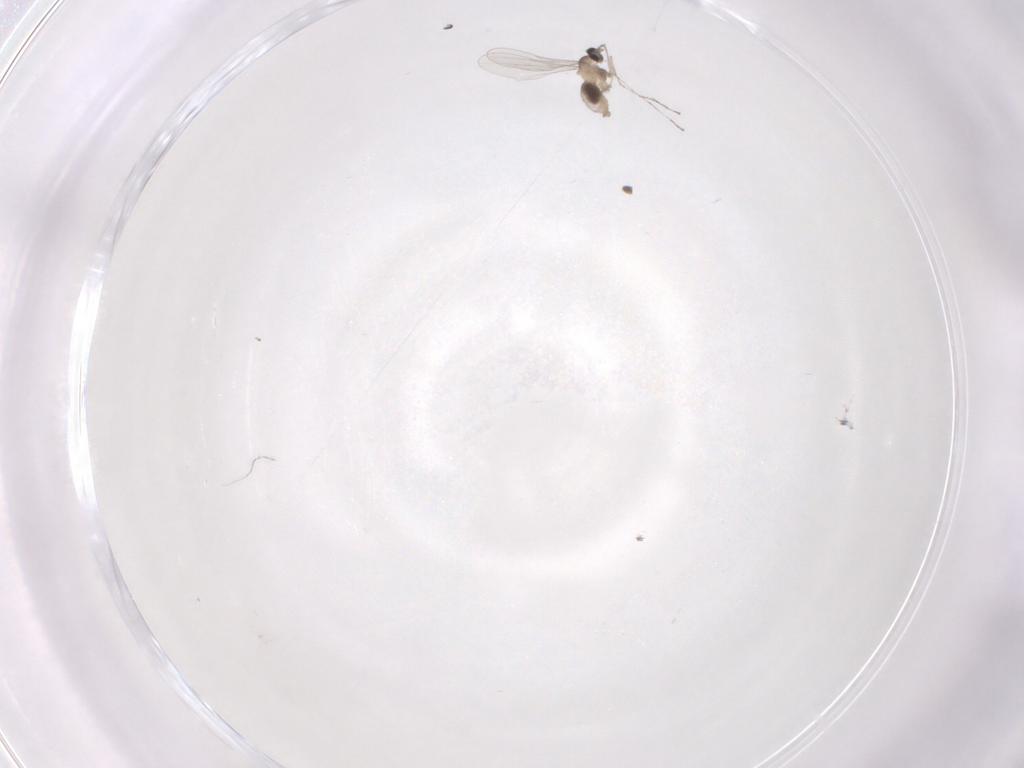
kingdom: Animalia
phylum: Arthropoda
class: Insecta
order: Diptera
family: Cecidomyiidae
